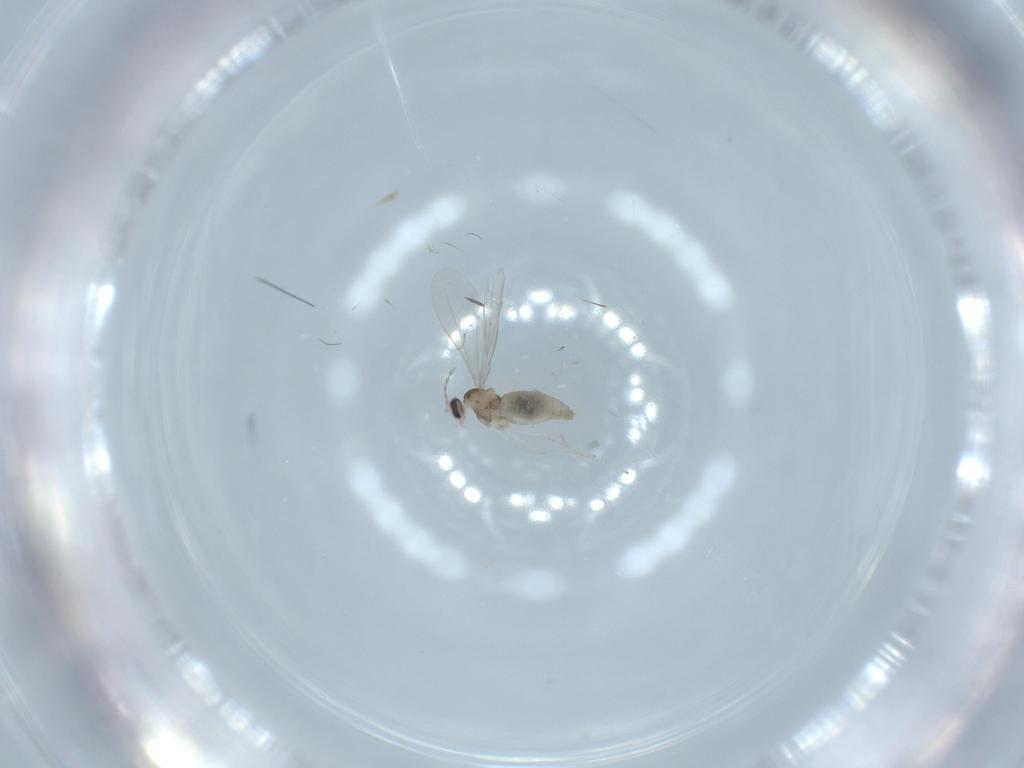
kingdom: Animalia
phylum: Arthropoda
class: Insecta
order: Diptera
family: Cecidomyiidae
